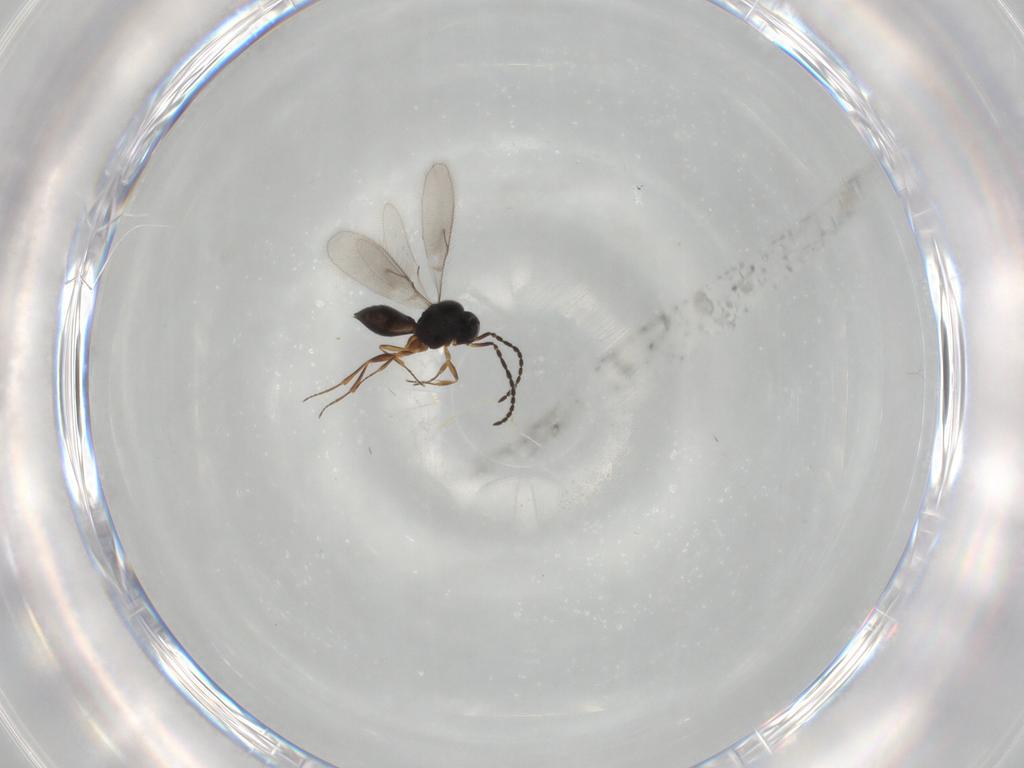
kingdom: Animalia
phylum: Arthropoda
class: Insecta
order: Hymenoptera
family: Scelionidae
